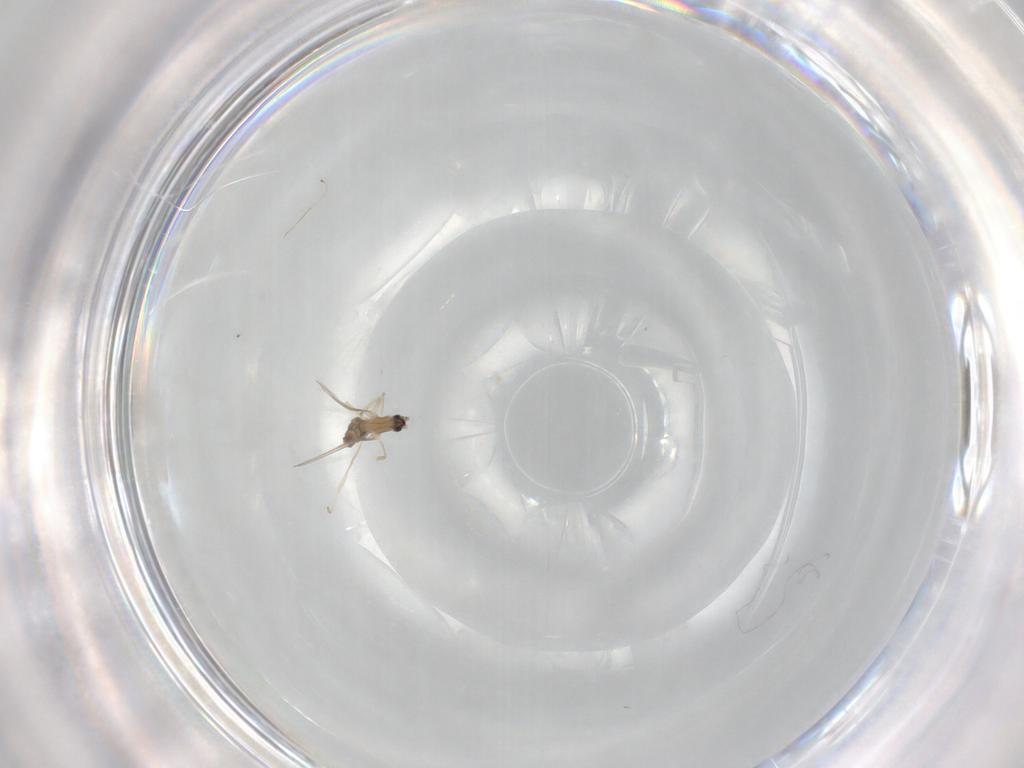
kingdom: Animalia
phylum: Arthropoda
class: Insecta
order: Diptera
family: Cecidomyiidae
